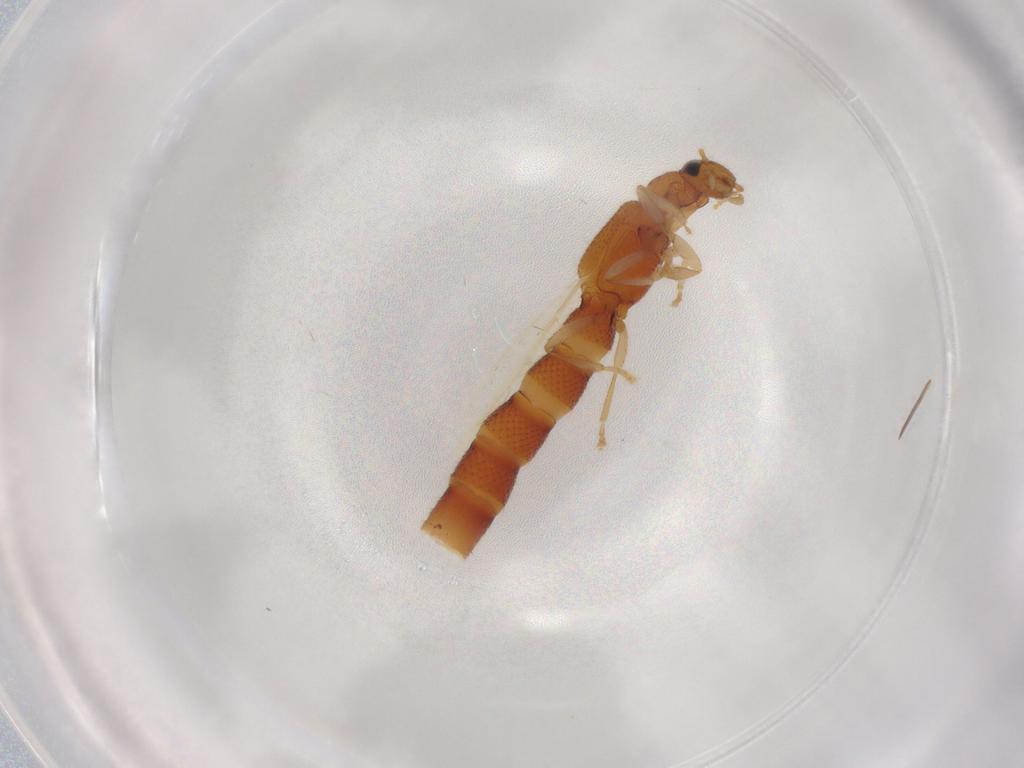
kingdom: Animalia
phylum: Arthropoda
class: Insecta
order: Coleoptera
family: Staphylinidae
